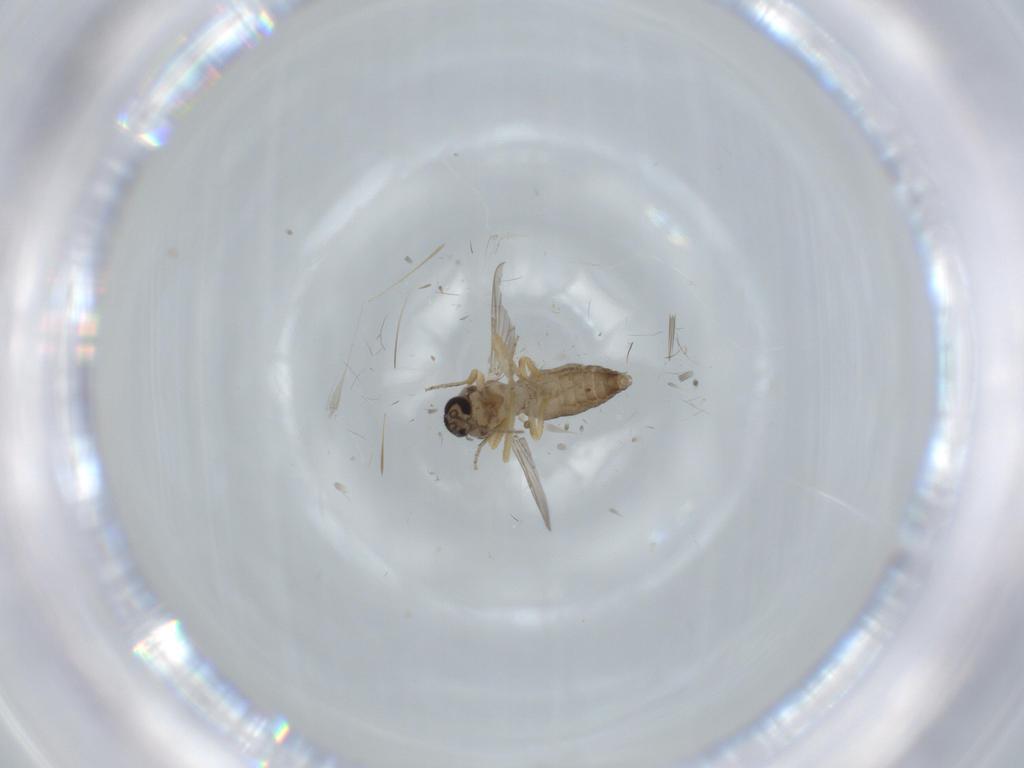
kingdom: Animalia
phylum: Arthropoda
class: Insecta
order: Diptera
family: Ceratopogonidae
